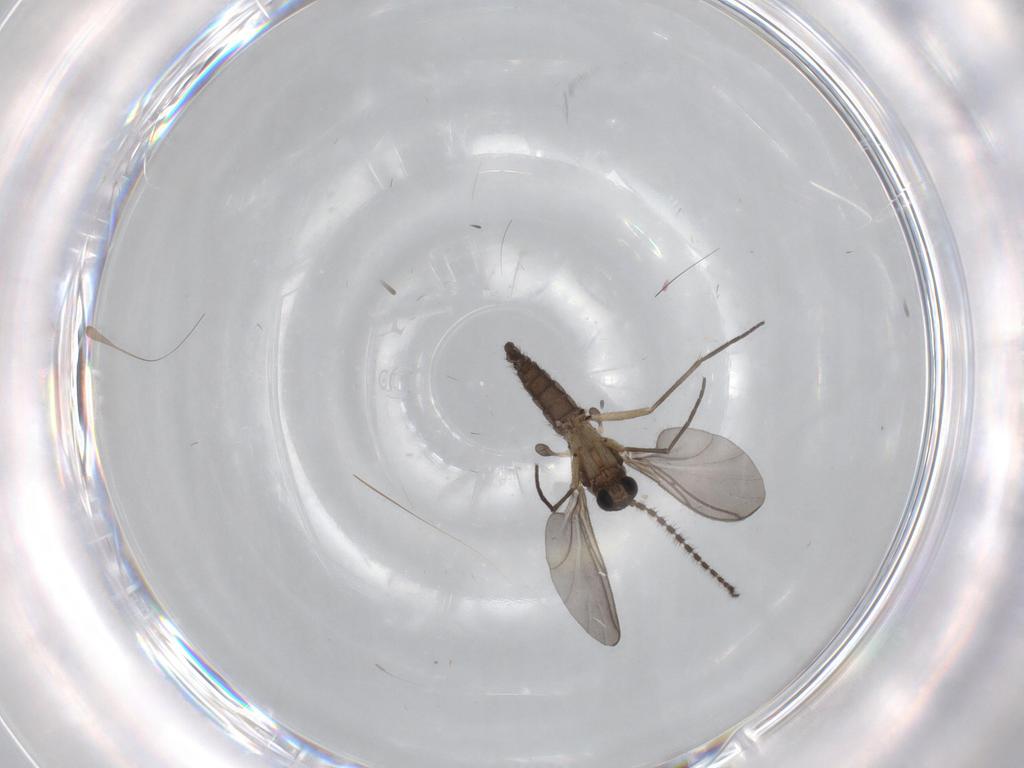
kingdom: Animalia
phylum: Arthropoda
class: Insecta
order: Diptera
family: Sciaridae
